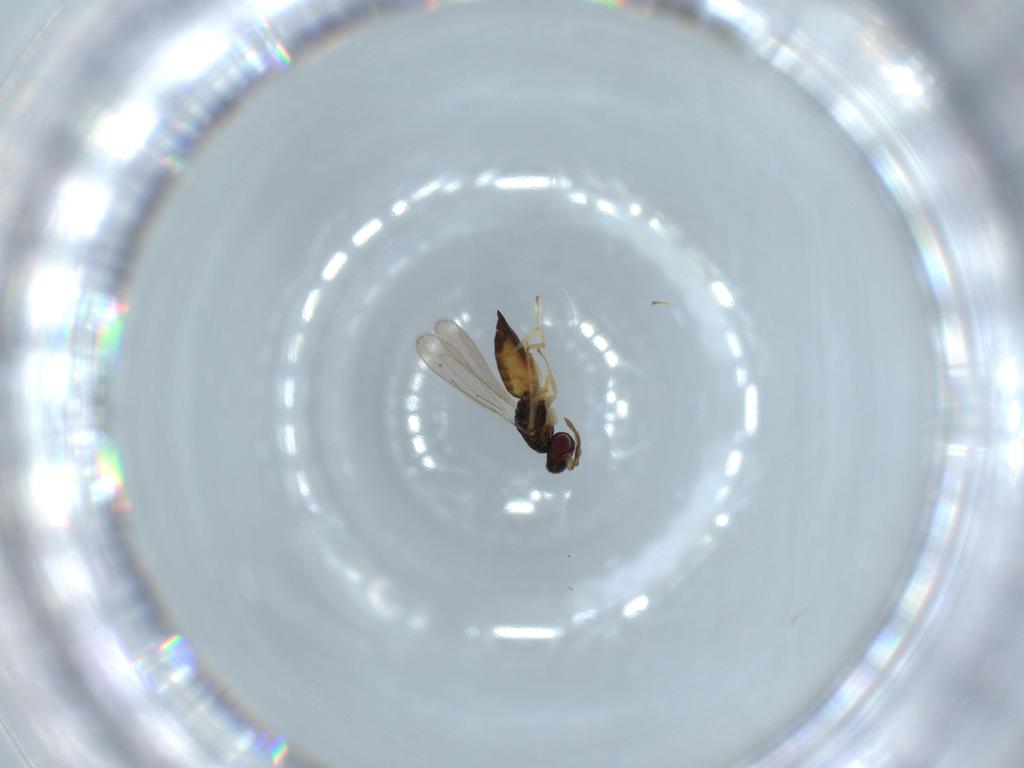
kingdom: Animalia
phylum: Arthropoda
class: Insecta
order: Hymenoptera
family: Eulophidae
